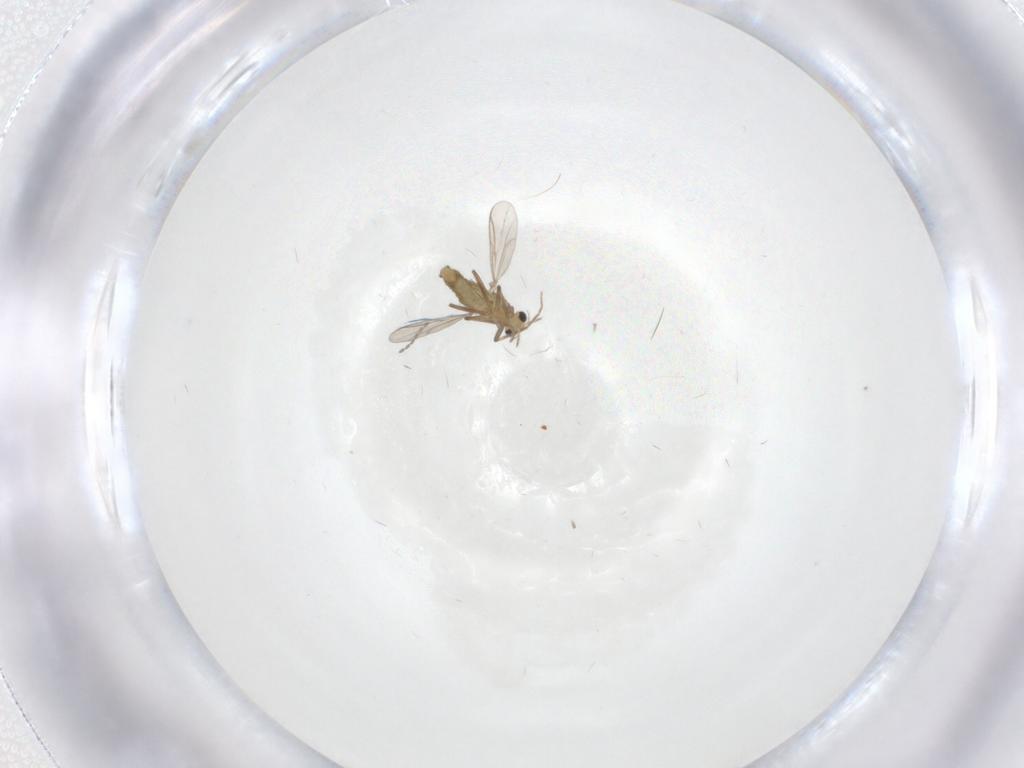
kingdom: Animalia
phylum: Arthropoda
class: Insecta
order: Diptera
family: Chironomidae
